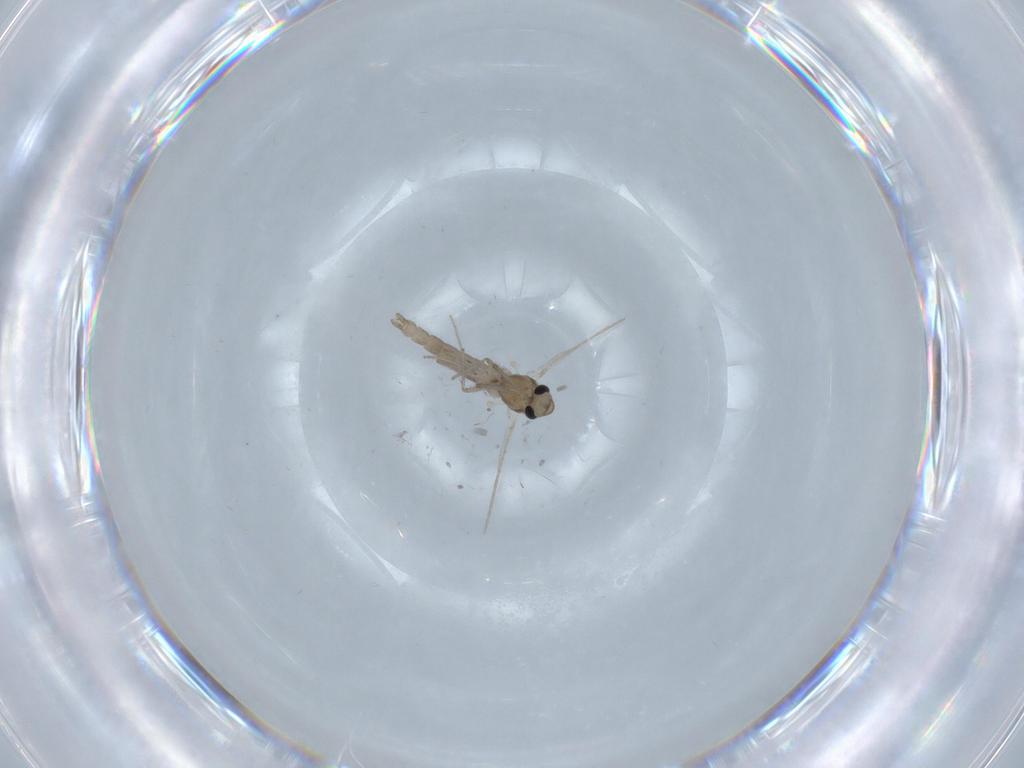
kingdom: Animalia
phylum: Arthropoda
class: Insecta
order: Diptera
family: Chironomidae
